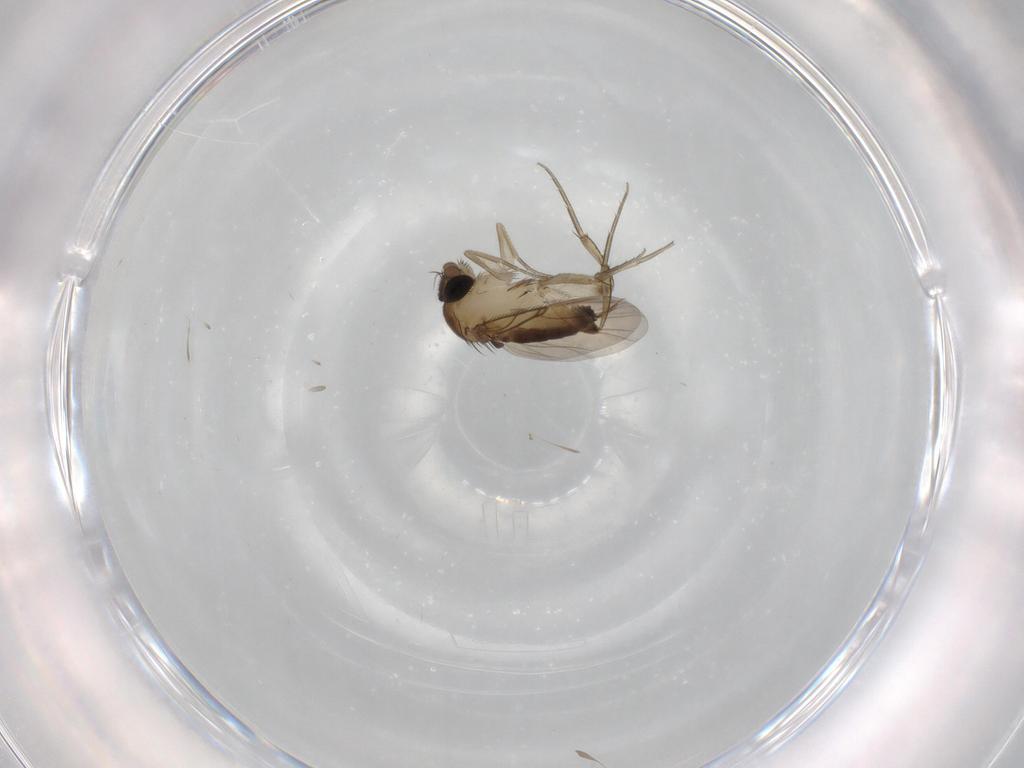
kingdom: Animalia
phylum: Arthropoda
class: Insecta
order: Diptera
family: Phoridae
